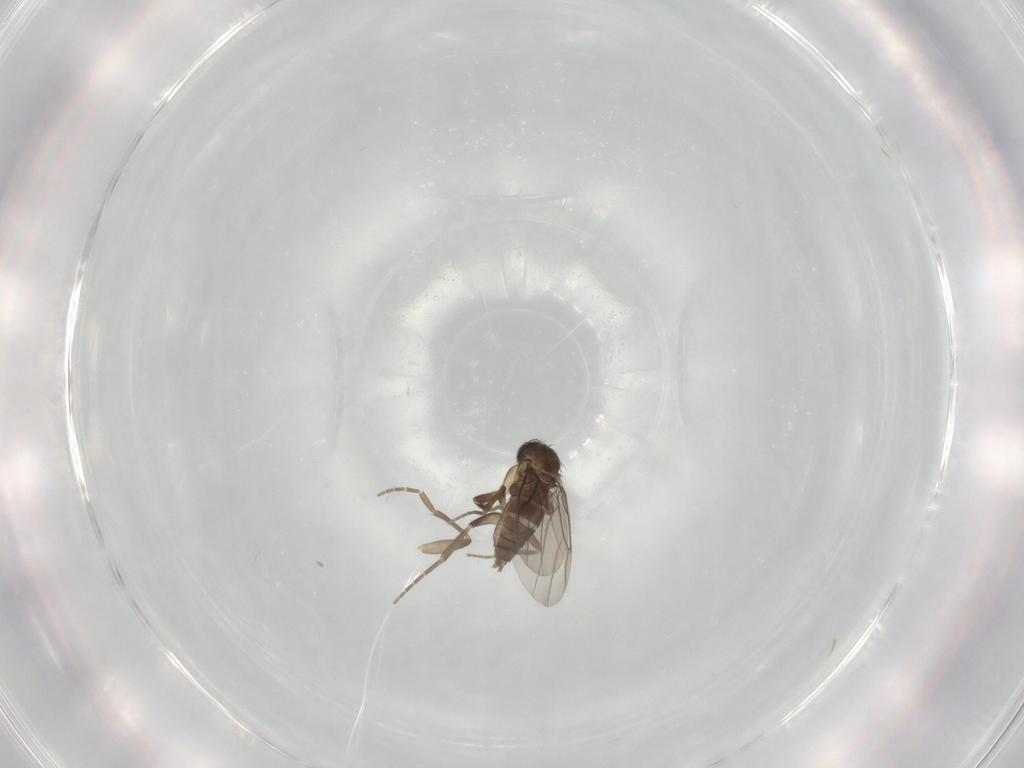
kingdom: Animalia
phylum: Arthropoda
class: Insecta
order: Diptera
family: Phoridae
